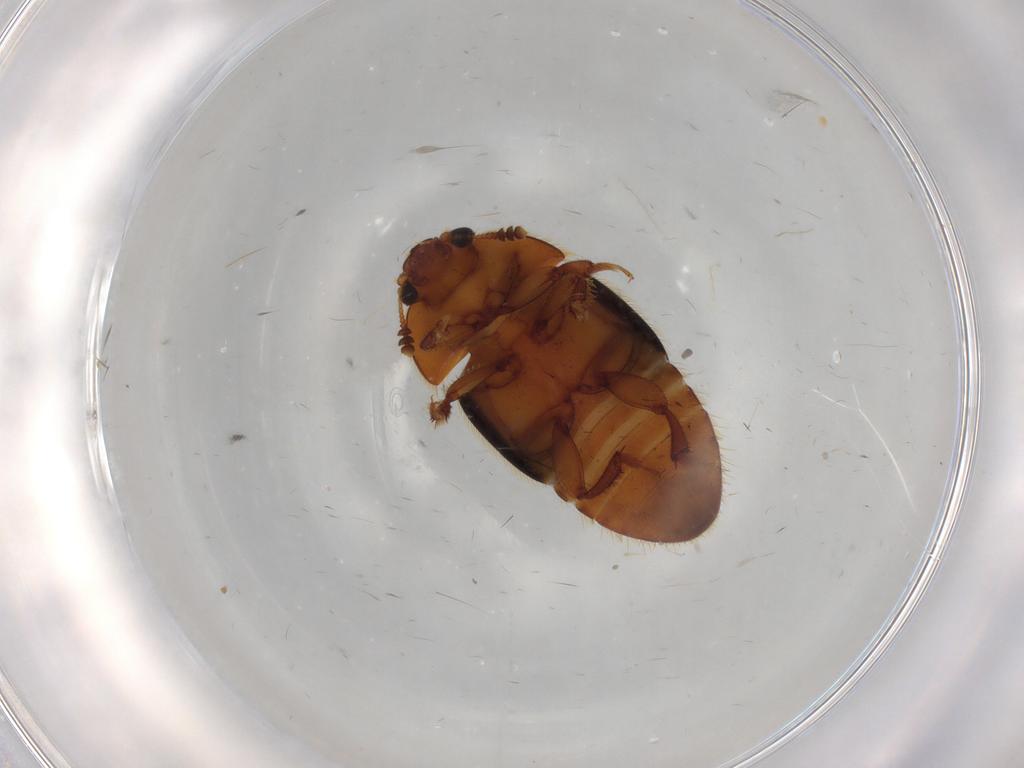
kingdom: Animalia
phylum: Arthropoda
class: Insecta
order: Coleoptera
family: Nitidulidae
